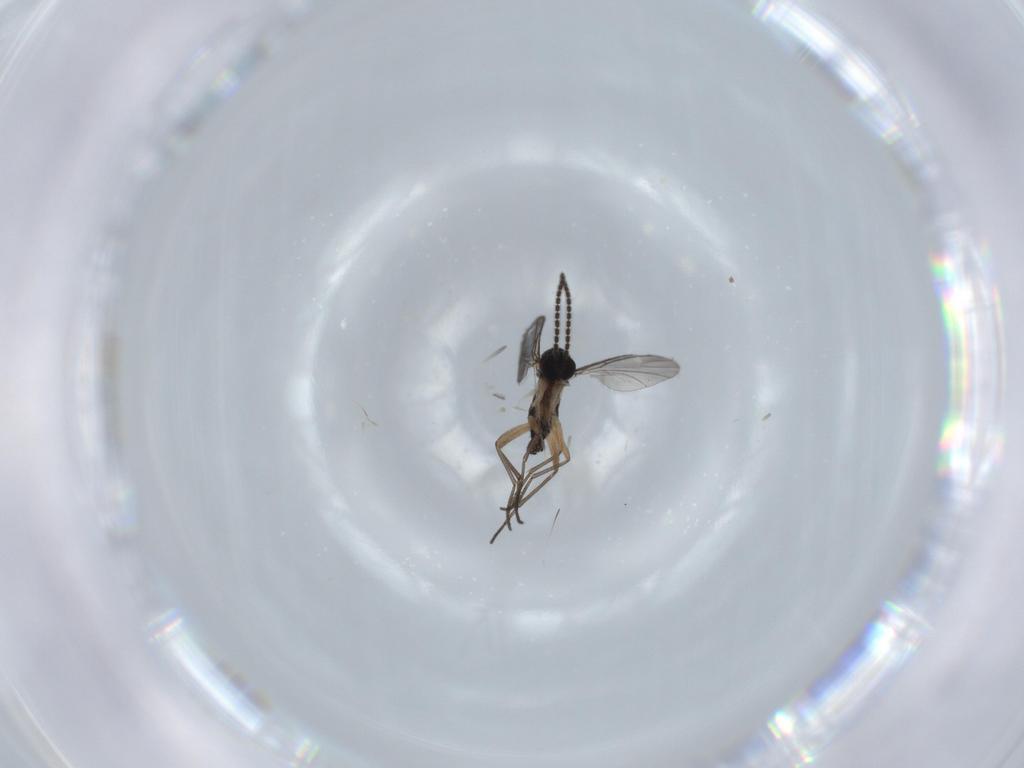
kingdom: Animalia
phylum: Arthropoda
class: Insecta
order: Diptera
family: Sciaridae
